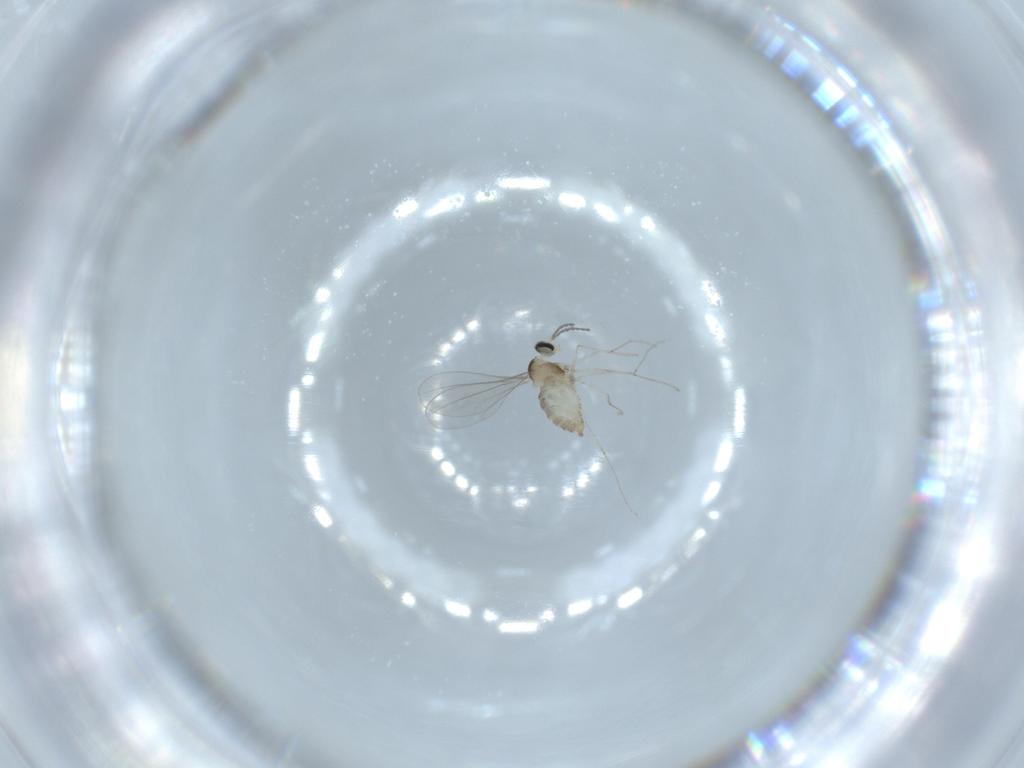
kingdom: Animalia
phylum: Arthropoda
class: Insecta
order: Diptera
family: Cecidomyiidae
